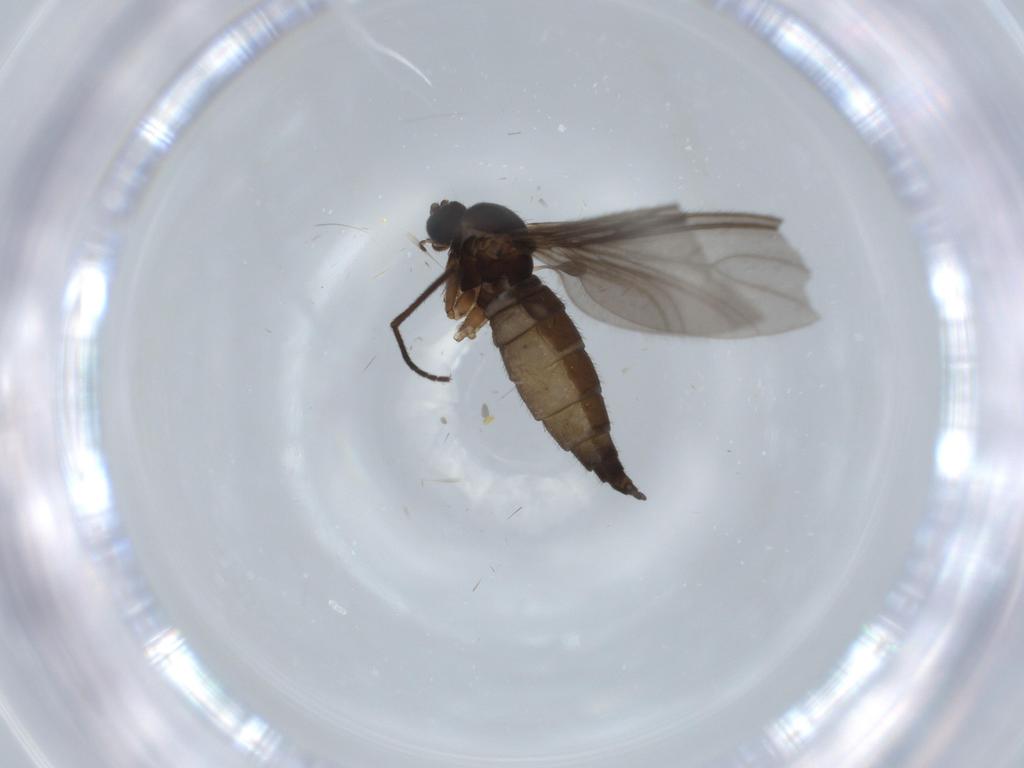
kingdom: Animalia
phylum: Arthropoda
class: Insecta
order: Diptera
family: Sciaridae
